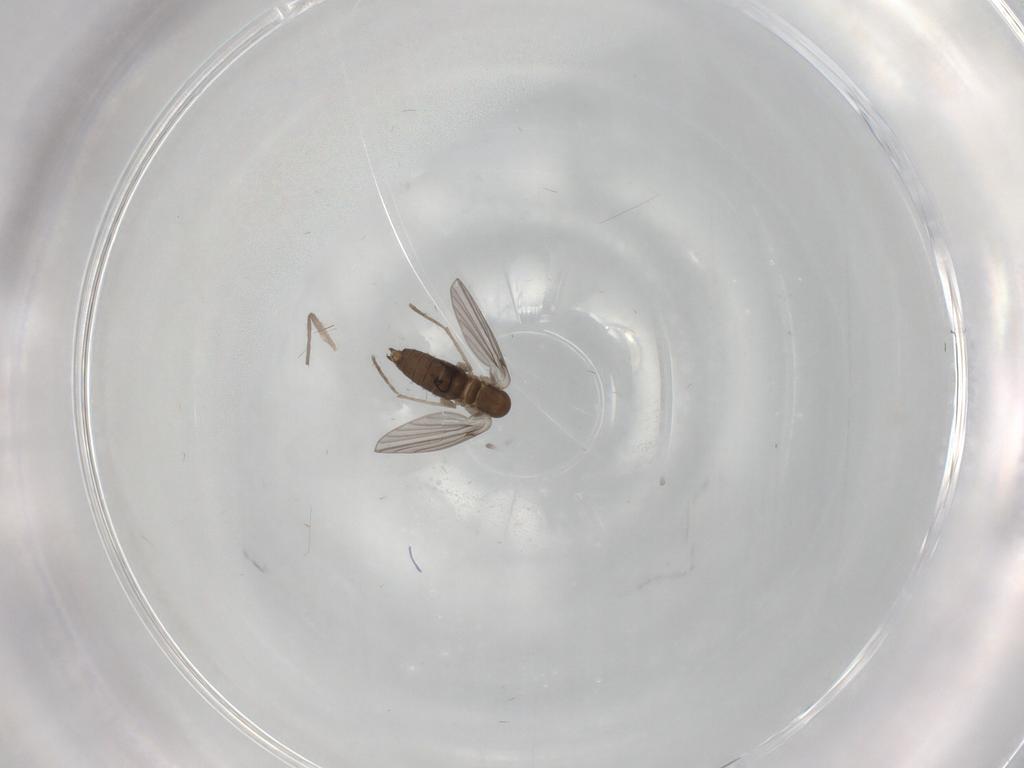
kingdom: Animalia
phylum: Arthropoda
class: Insecta
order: Diptera
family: Chironomidae
